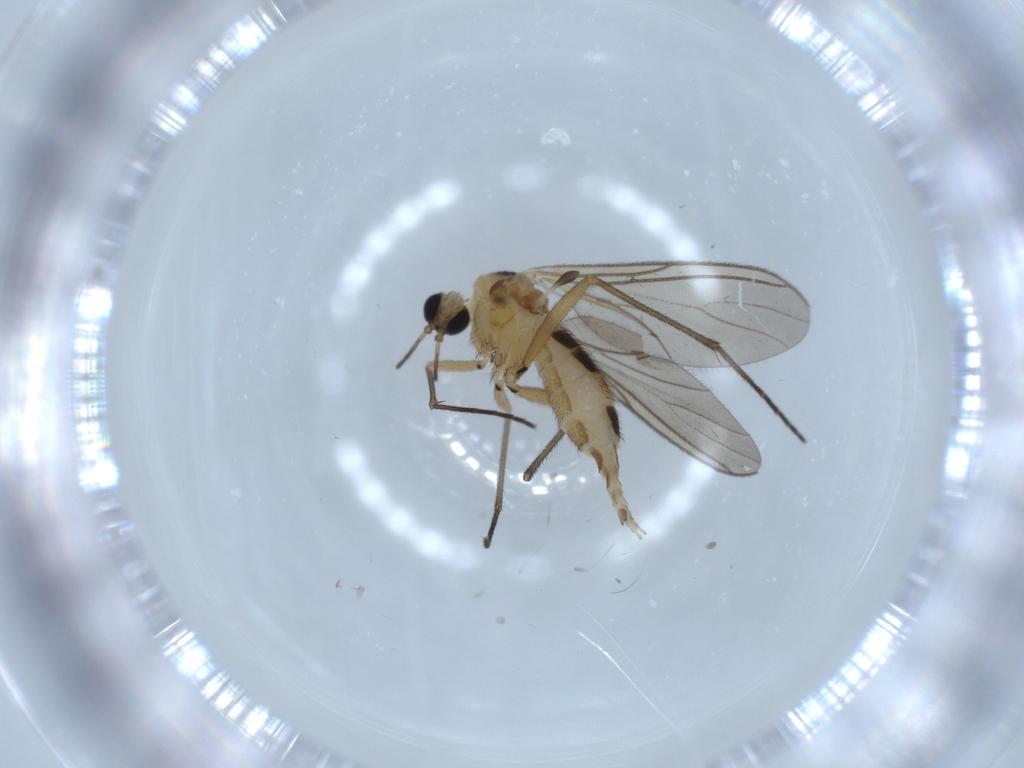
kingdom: Animalia
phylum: Arthropoda
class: Insecta
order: Diptera
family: Sciaridae
